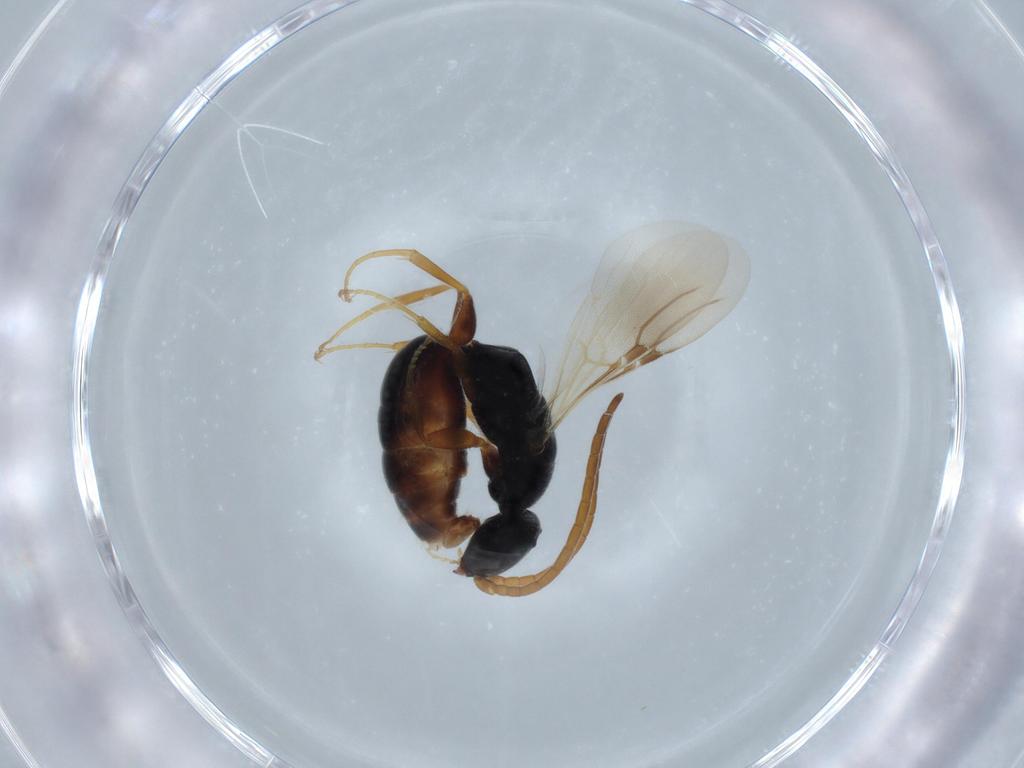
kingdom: Animalia
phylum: Arthropoda
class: Insecta
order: Hymenoptera
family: Bethylidae
